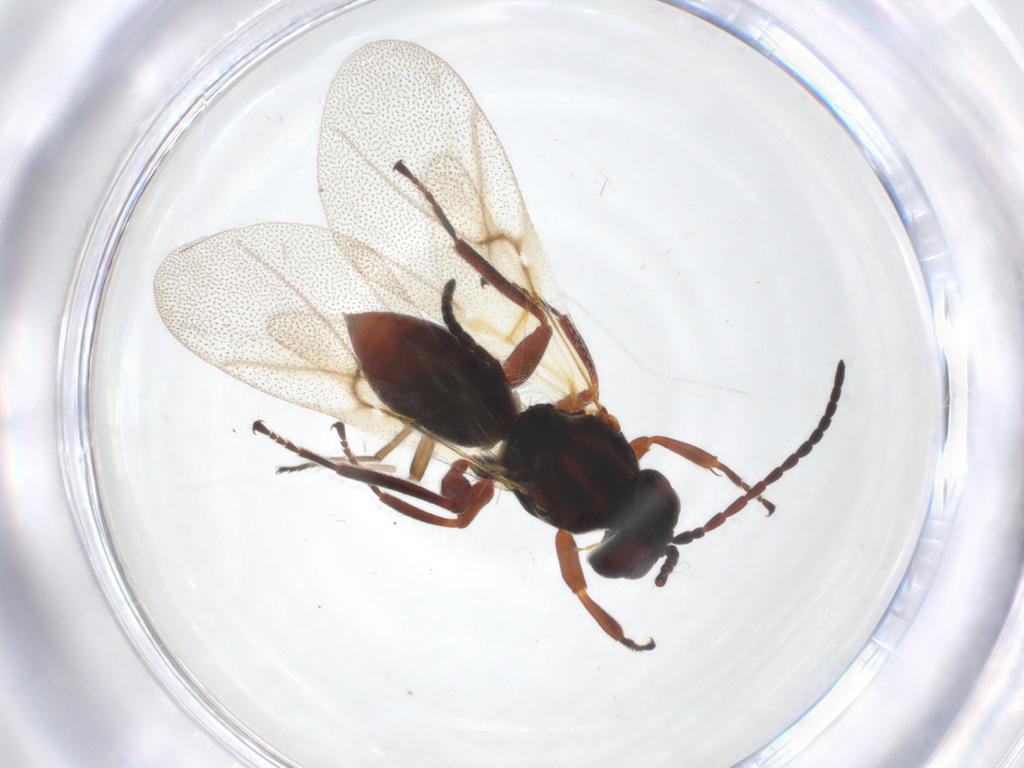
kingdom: Animalia
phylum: Arthropoda
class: Insecta
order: Hymenoptera
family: Cynipidae
